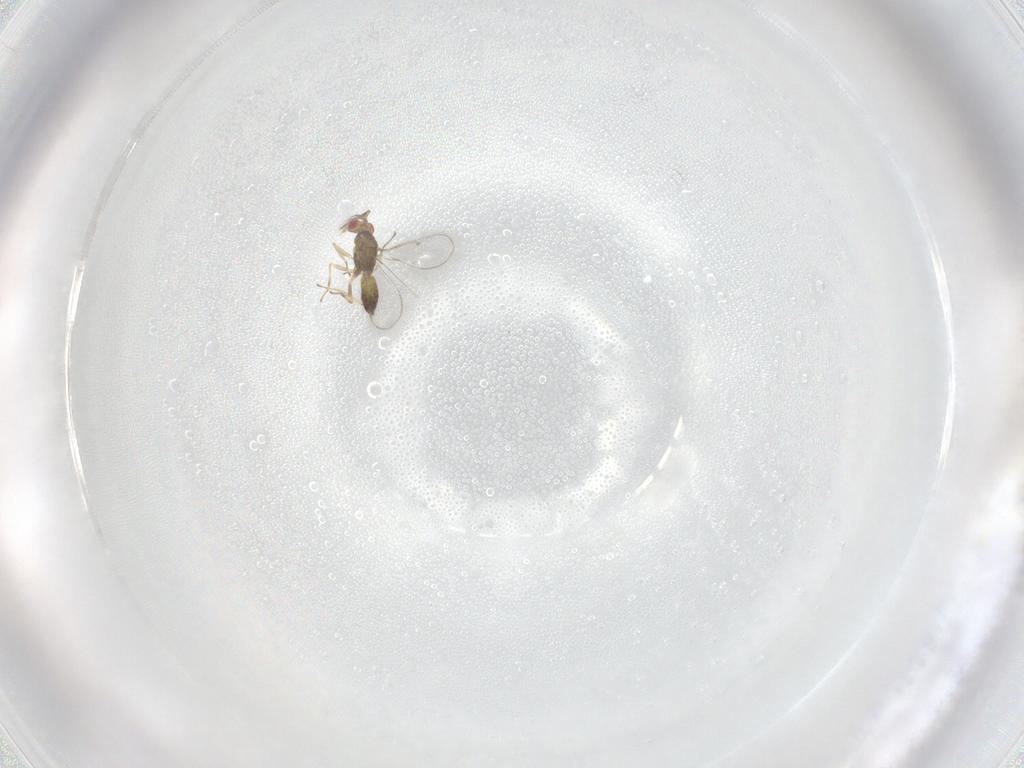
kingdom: Animalia
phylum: Arthropoda
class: Insecta
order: Hymenoptera
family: Eulophidae
